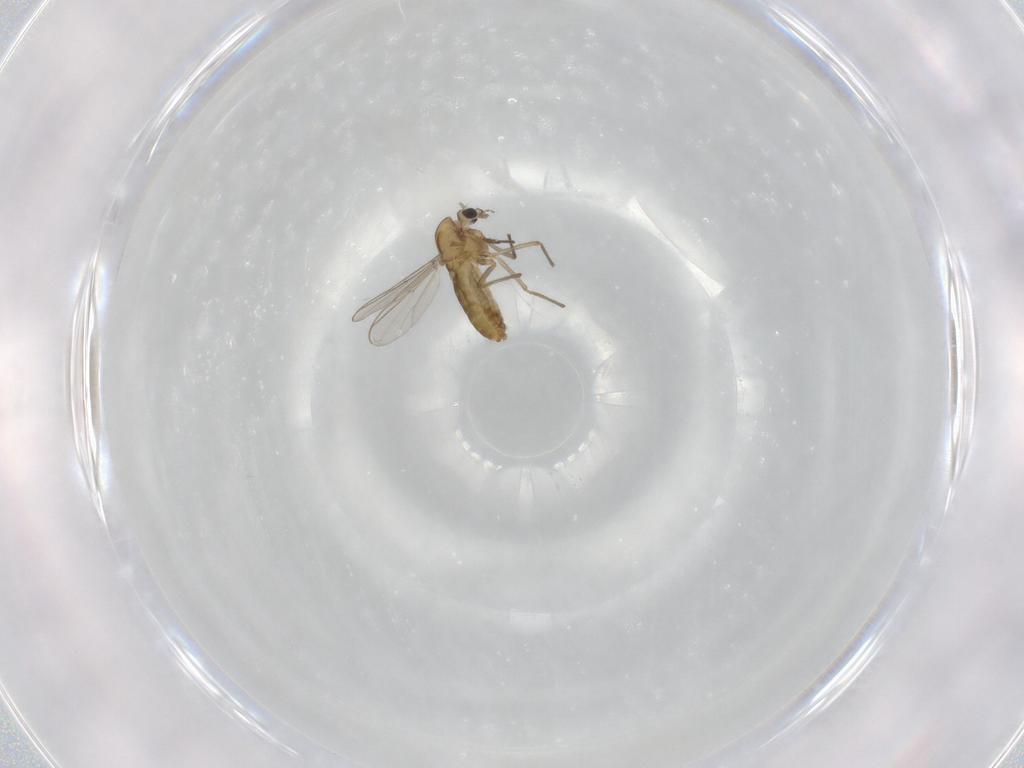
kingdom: Animalia
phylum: Arthropoda
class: Insecta
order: Diptera
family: Chironomidae
